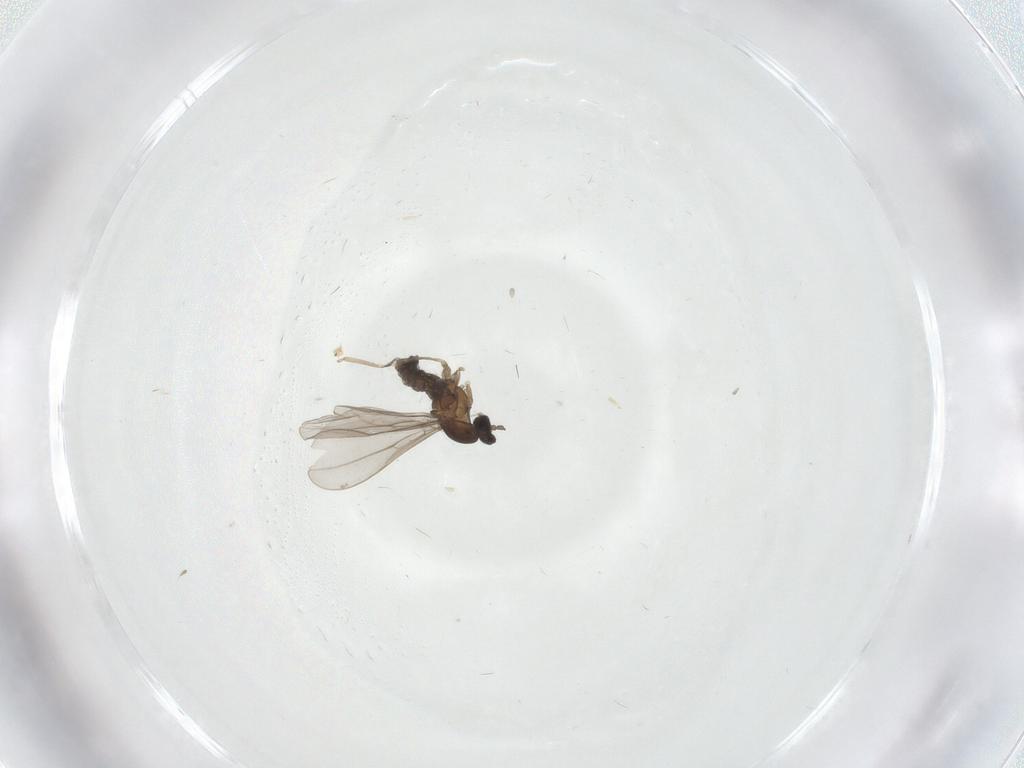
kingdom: Animalia
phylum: Arthropoda
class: Insecta
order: Diptera
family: Cecidomyiidae
